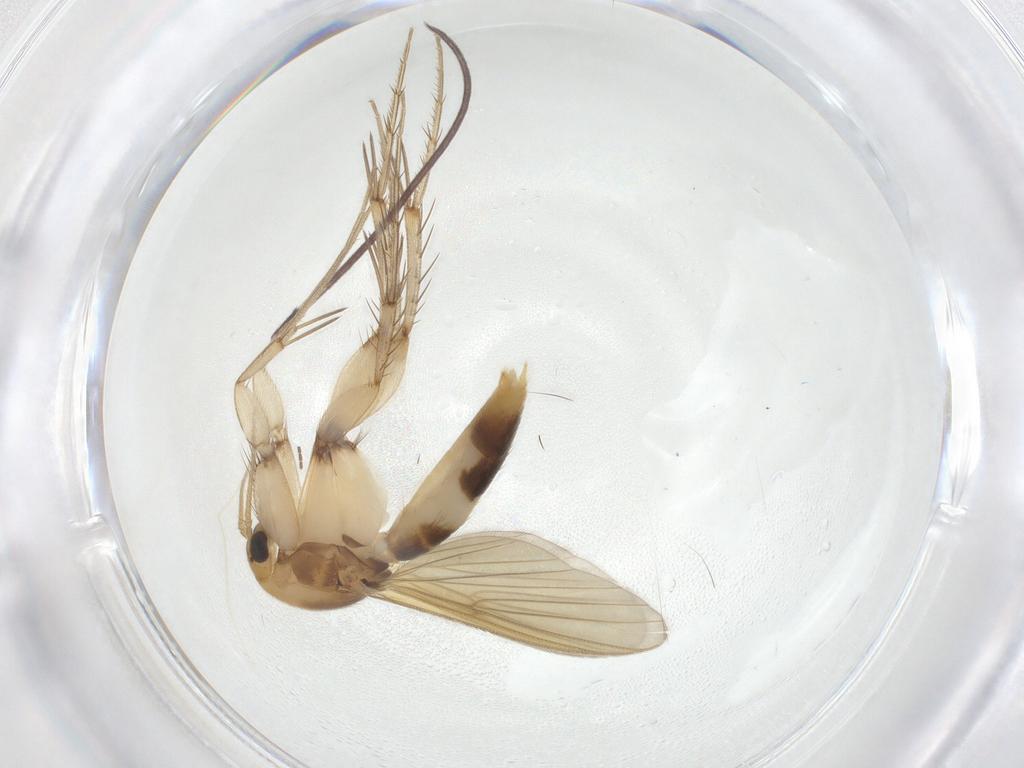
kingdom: Animalia
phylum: Arthropoda
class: Insecta
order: Diptera
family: Mycetophilidae
